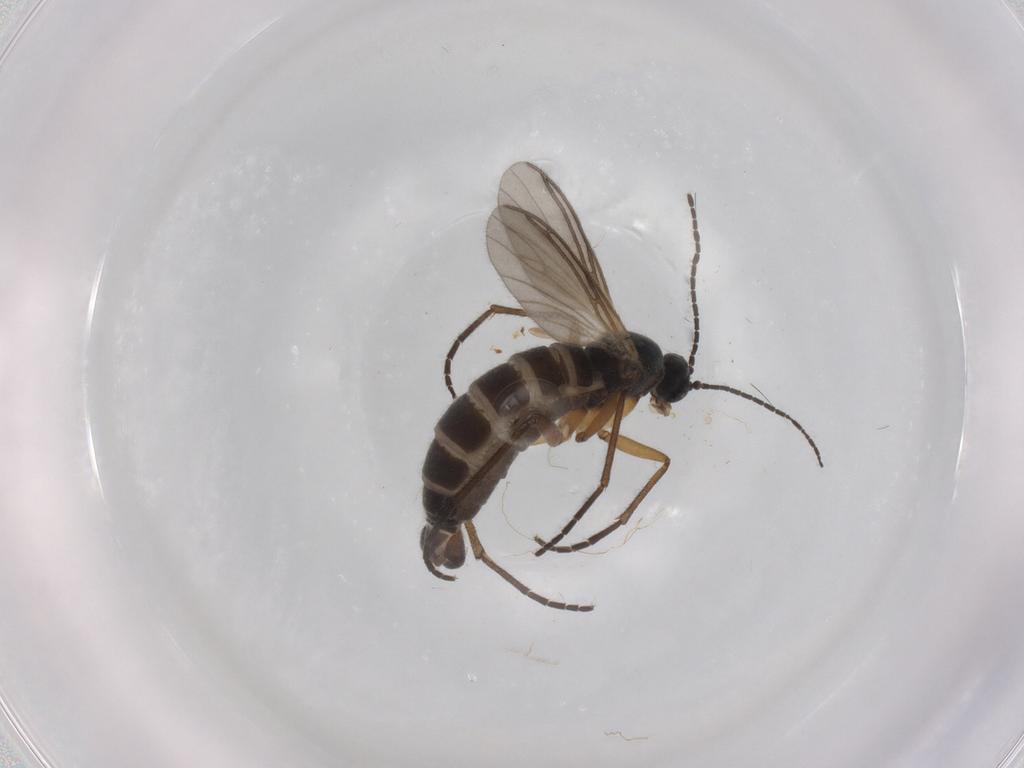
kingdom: Animalia
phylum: Arthropoda
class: Insecta
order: Diptera
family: Sciaridae
